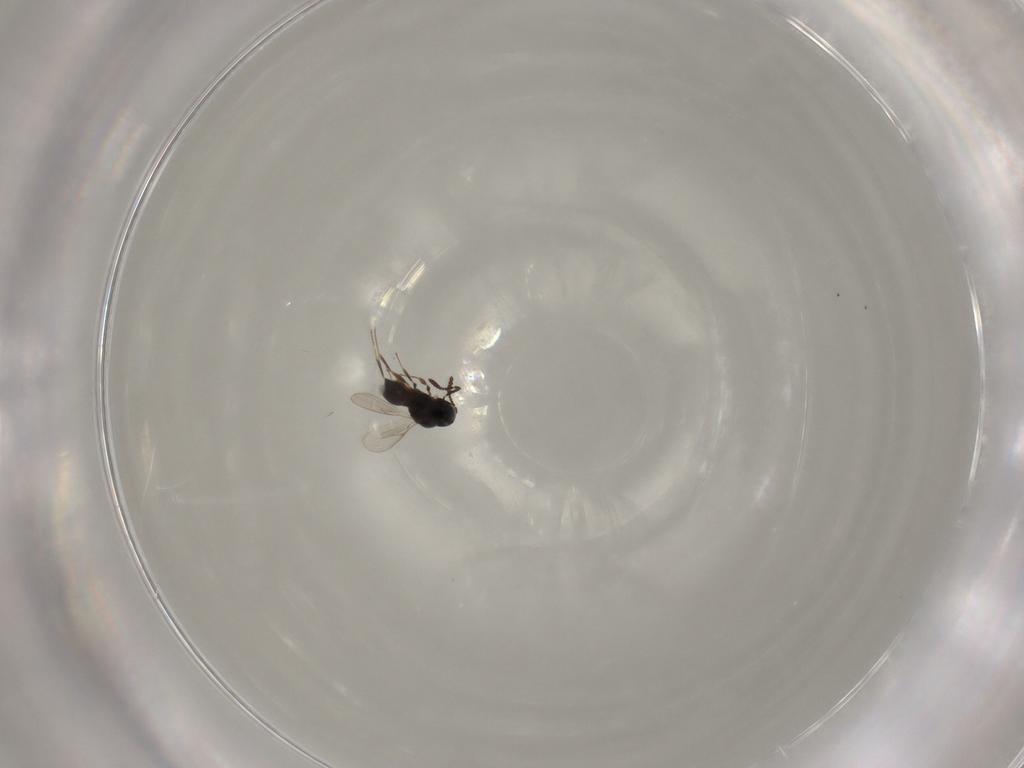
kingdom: Animalia
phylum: Arthropoda
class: Insecta
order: Hymenoptera
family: Scelionidae
